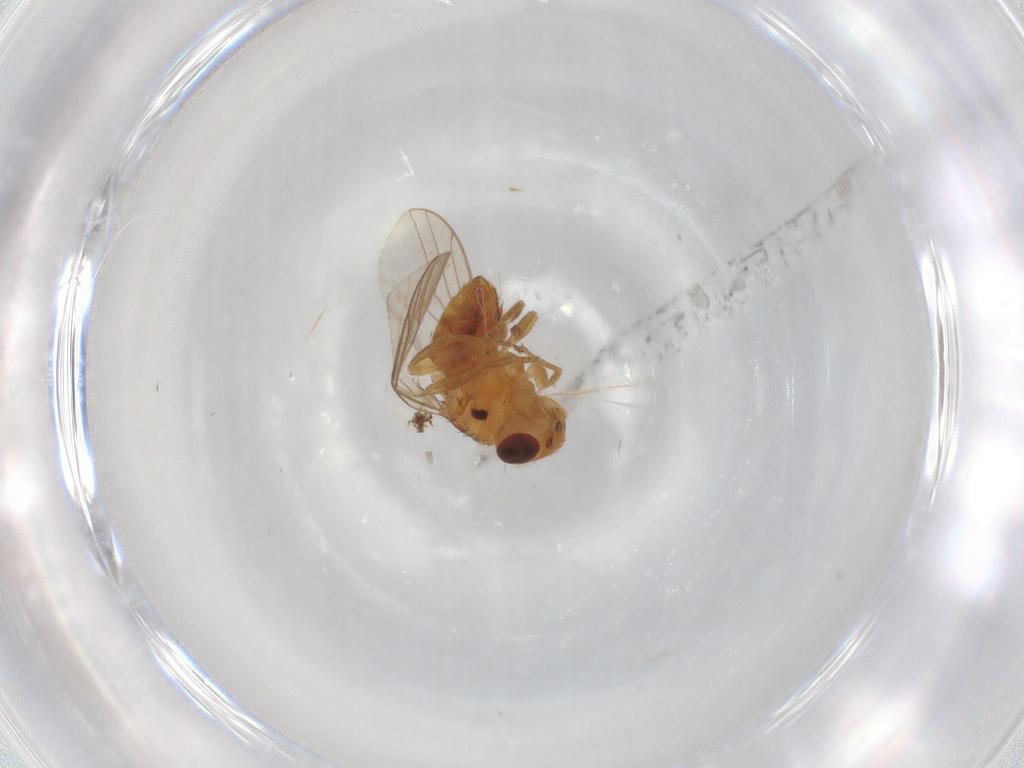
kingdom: Animalia
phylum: Arthropoda
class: Insecta
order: Diptera
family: Chloropidae
